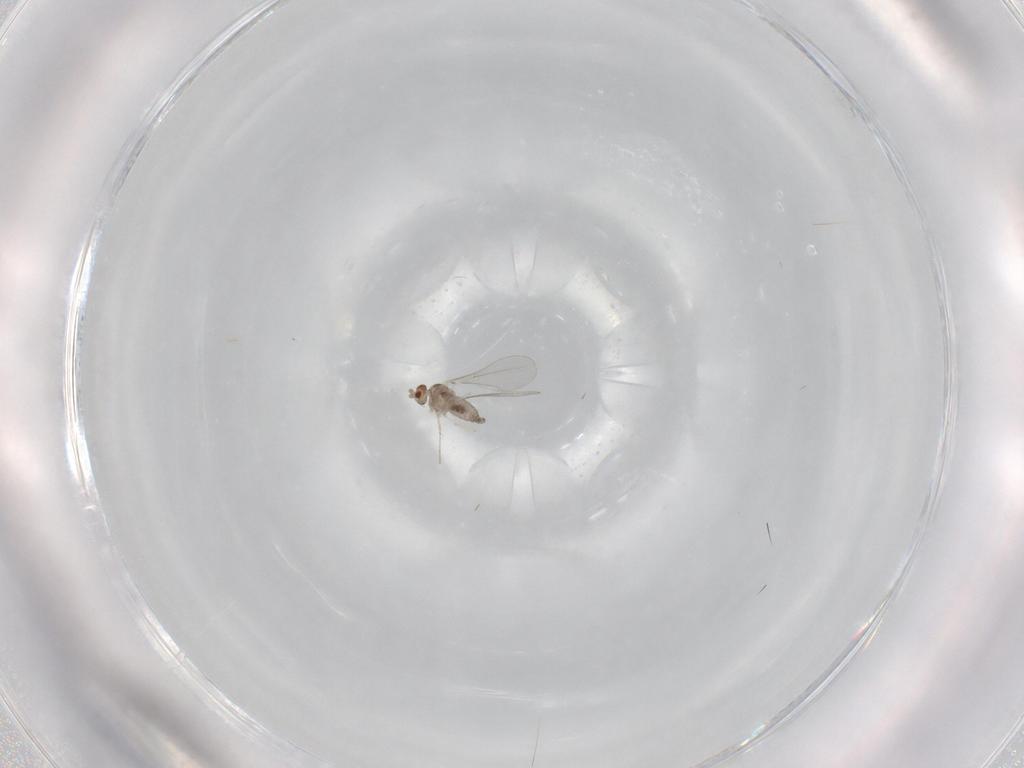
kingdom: Animalia
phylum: Arthropoda
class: Insecta
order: Diptera
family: Cecidomyiidae
